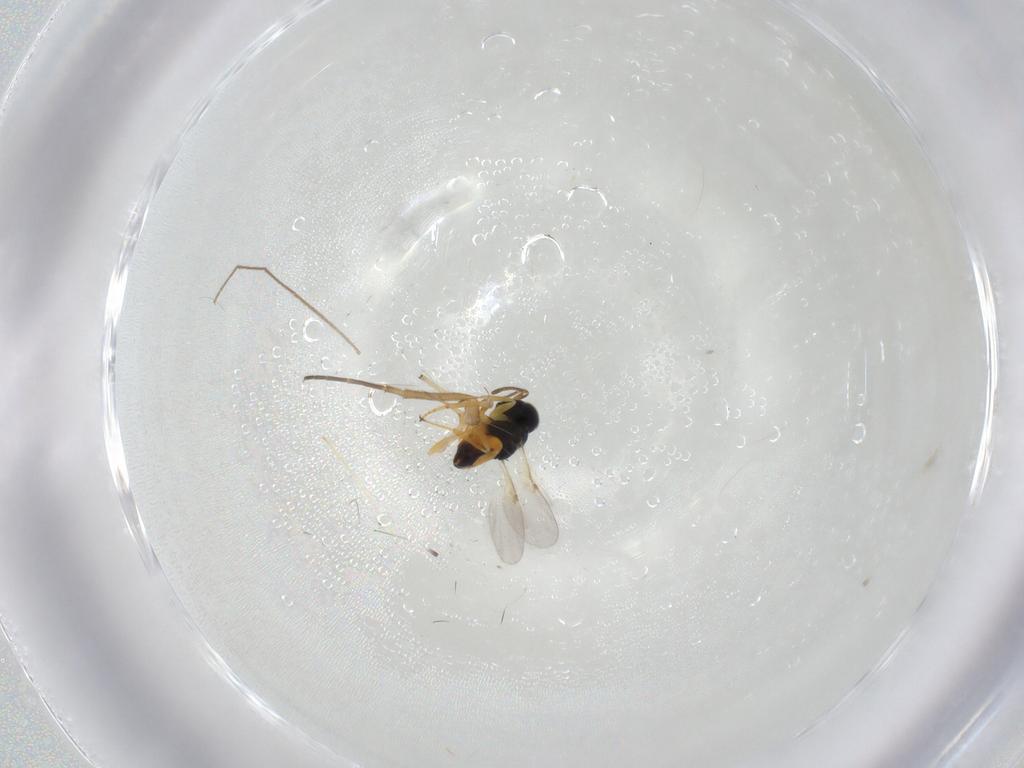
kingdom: Animalia
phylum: Arthropoda
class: Insecta
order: Hymenoptera
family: Encyrtidae
